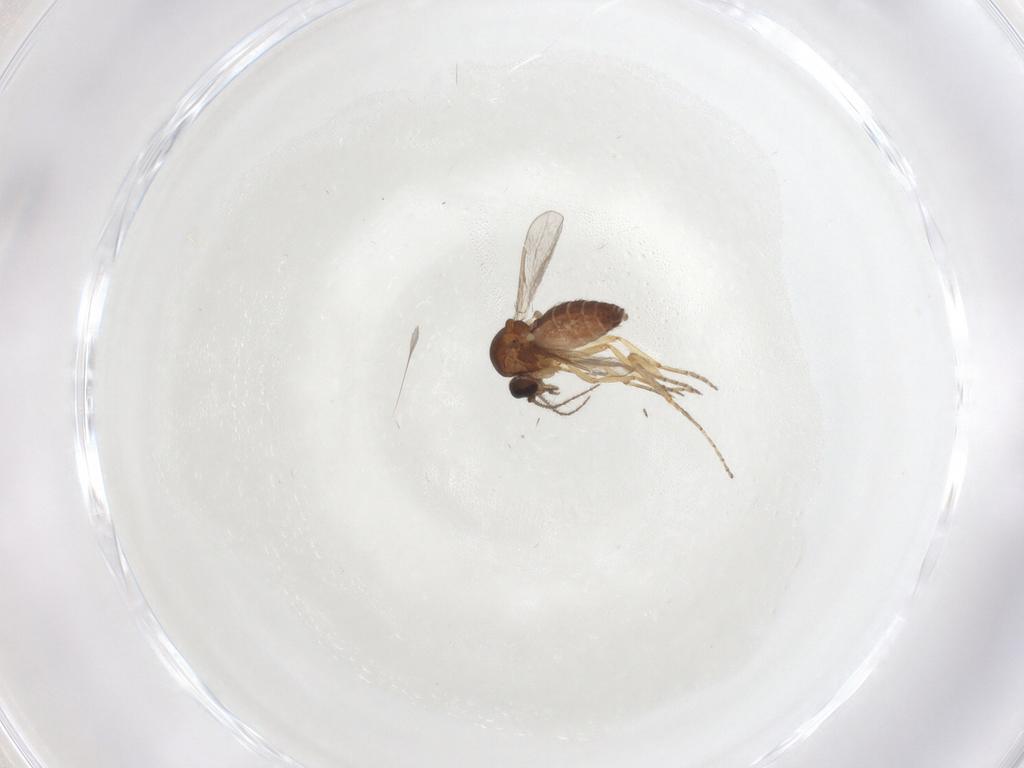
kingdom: Animalia
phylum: Arthropoda
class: Insecta
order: Diptera
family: Ceratopogonidae
